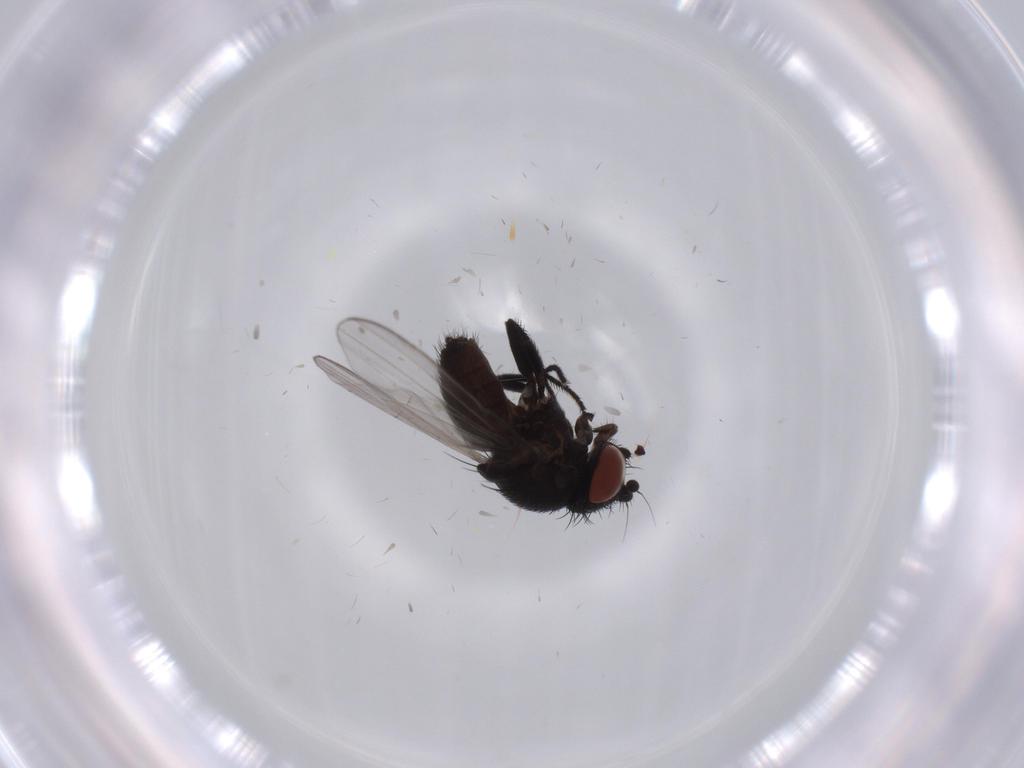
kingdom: Animalia
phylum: Arthropoda
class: Insecta
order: Diptera
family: Milichiidae
